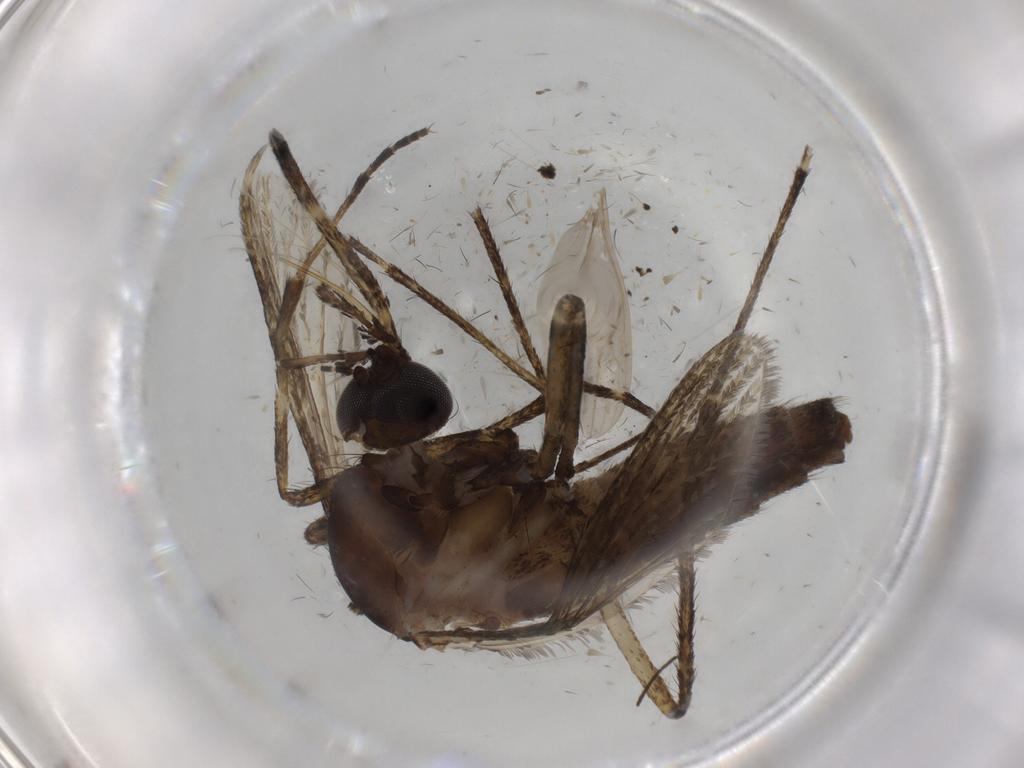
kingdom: Animalia
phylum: Arthropoda
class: Insecta
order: Diptera
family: Culicidae
